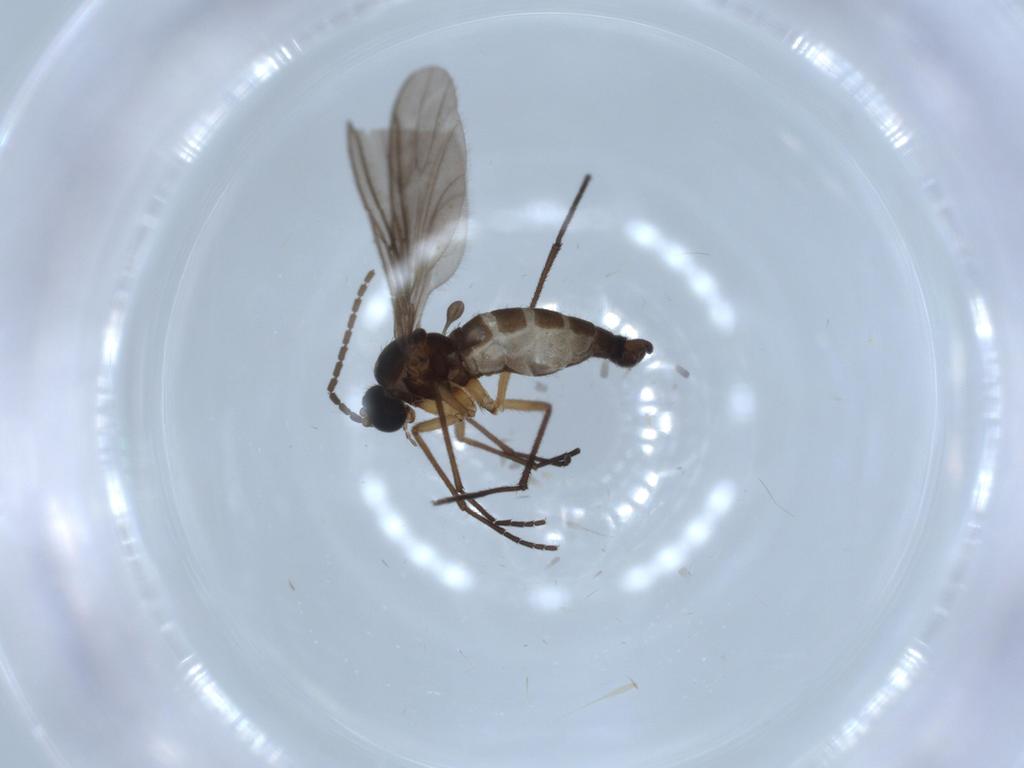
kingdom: Animalia
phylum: Arthropoda
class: Insecta
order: Diptera
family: Sciaridae
